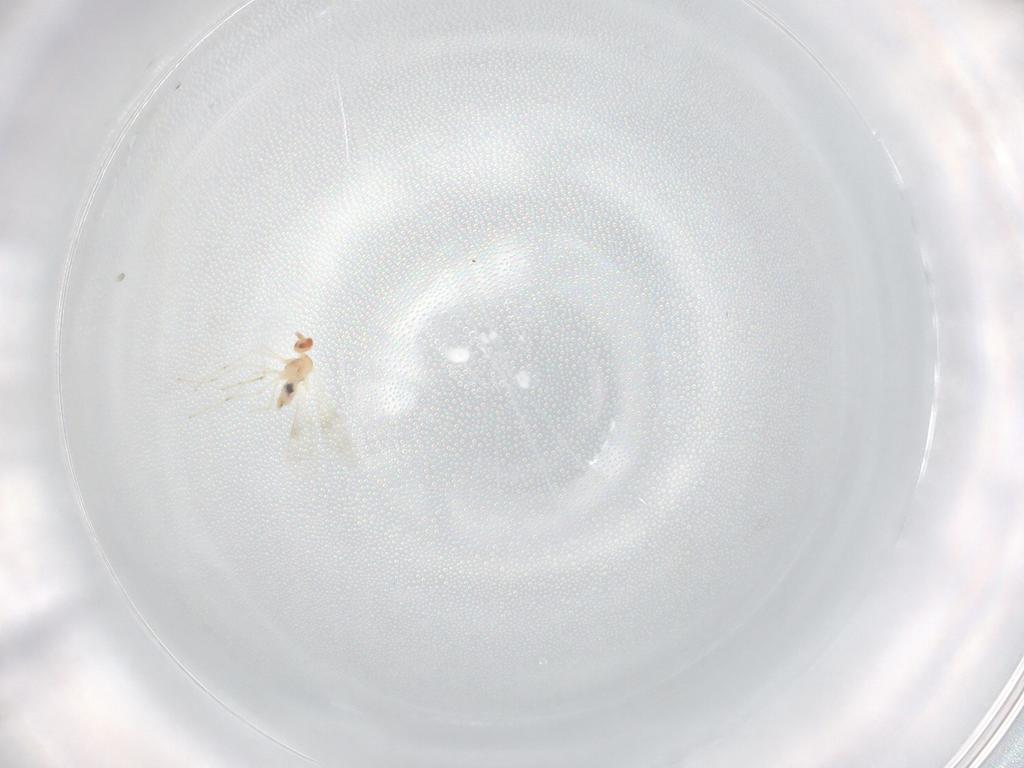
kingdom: Animalia
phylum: Arthropoda
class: Insecta
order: Diptera
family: Cecidomyiidae
